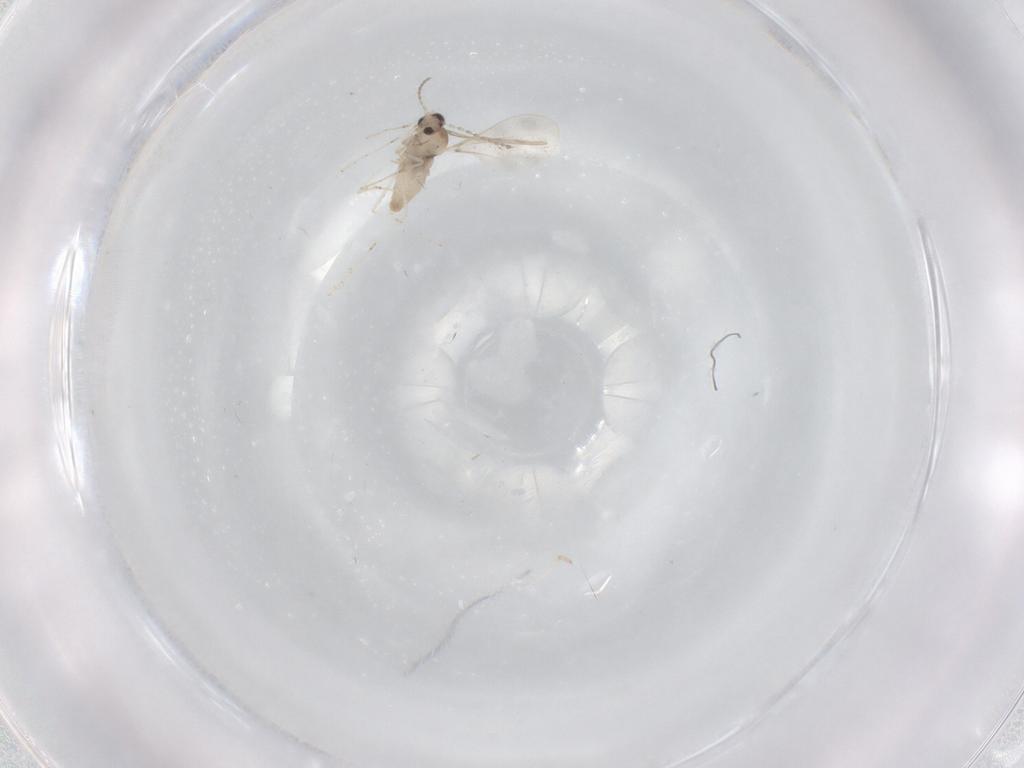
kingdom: Animalia
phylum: Arthropoda
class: Insecta
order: Diptera
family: Cecidomyiidae
